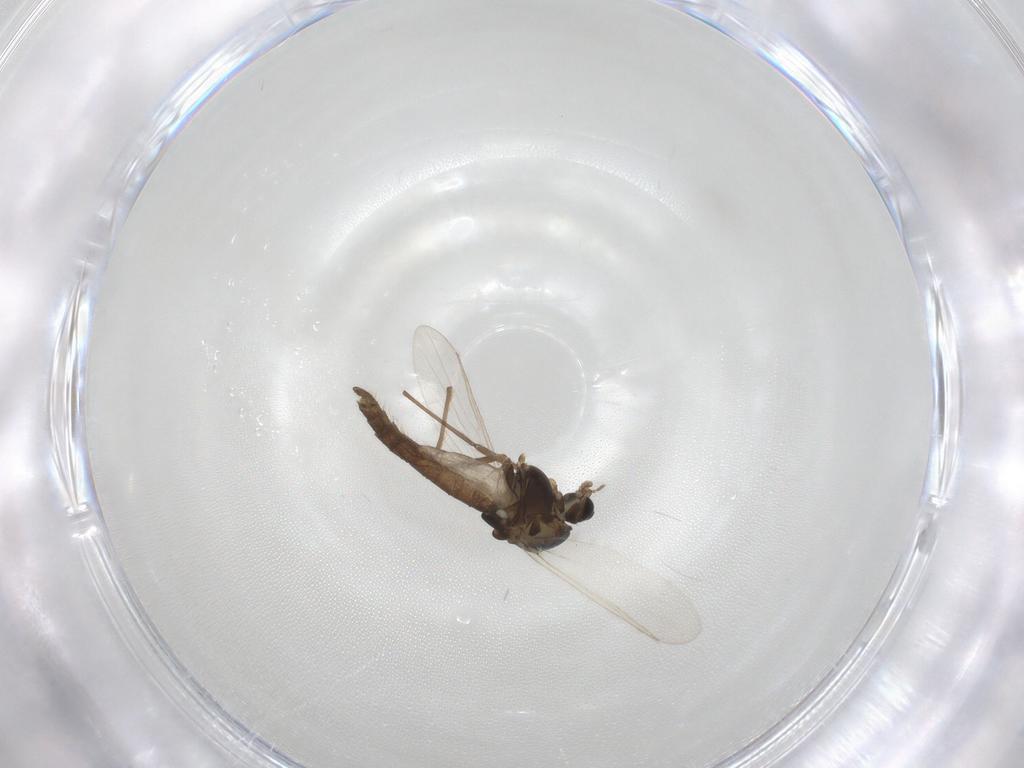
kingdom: Animalia
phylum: Arthropoda
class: Insecta
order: Diptera
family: Chironomidae
